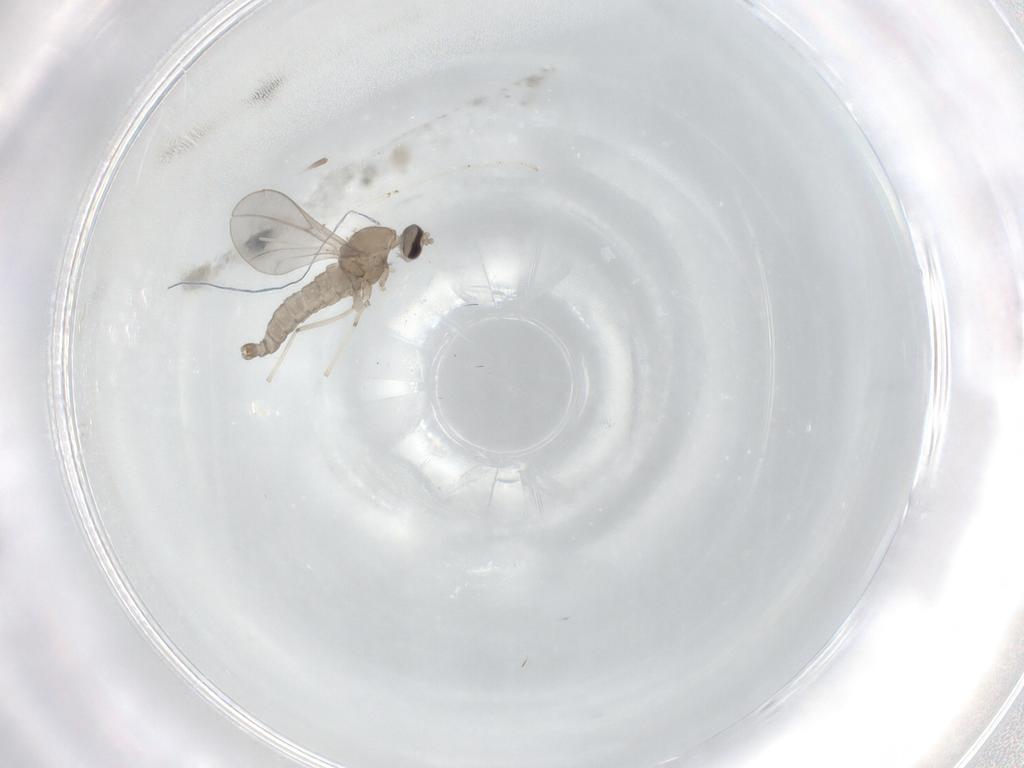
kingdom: Animalia
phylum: Arthropoda
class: Insecta
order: Diptera
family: Cecidomyiidae
